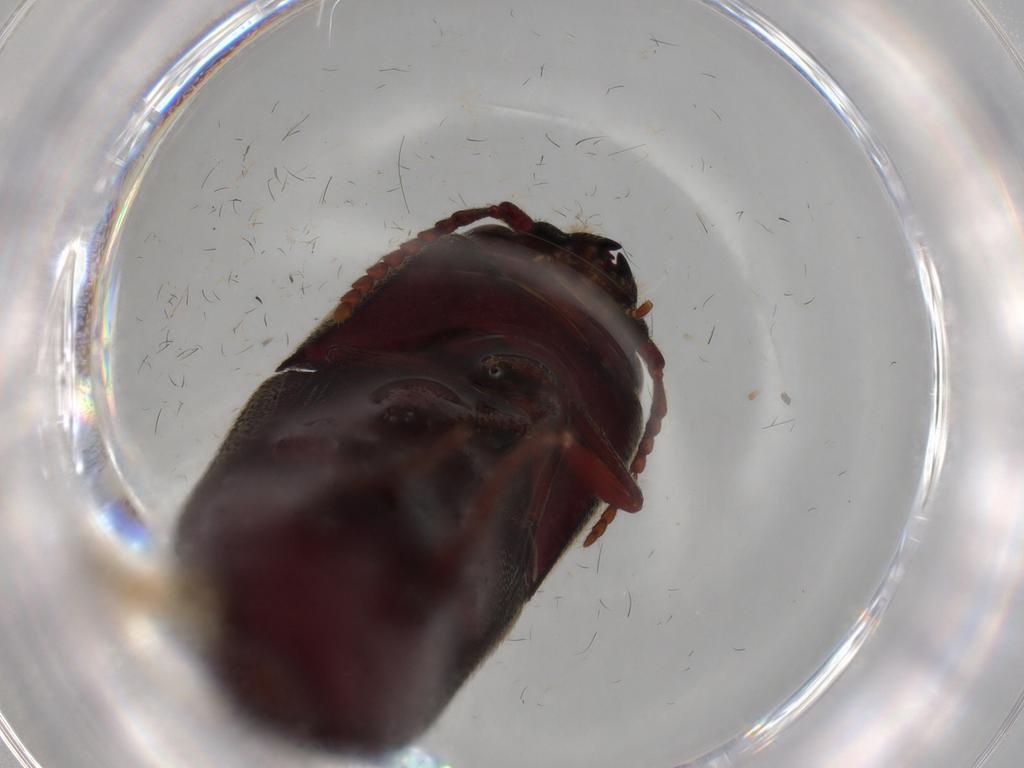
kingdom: Animalia
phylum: Arthropoda
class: Insecta
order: Coleoptera
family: Eucnemidae
